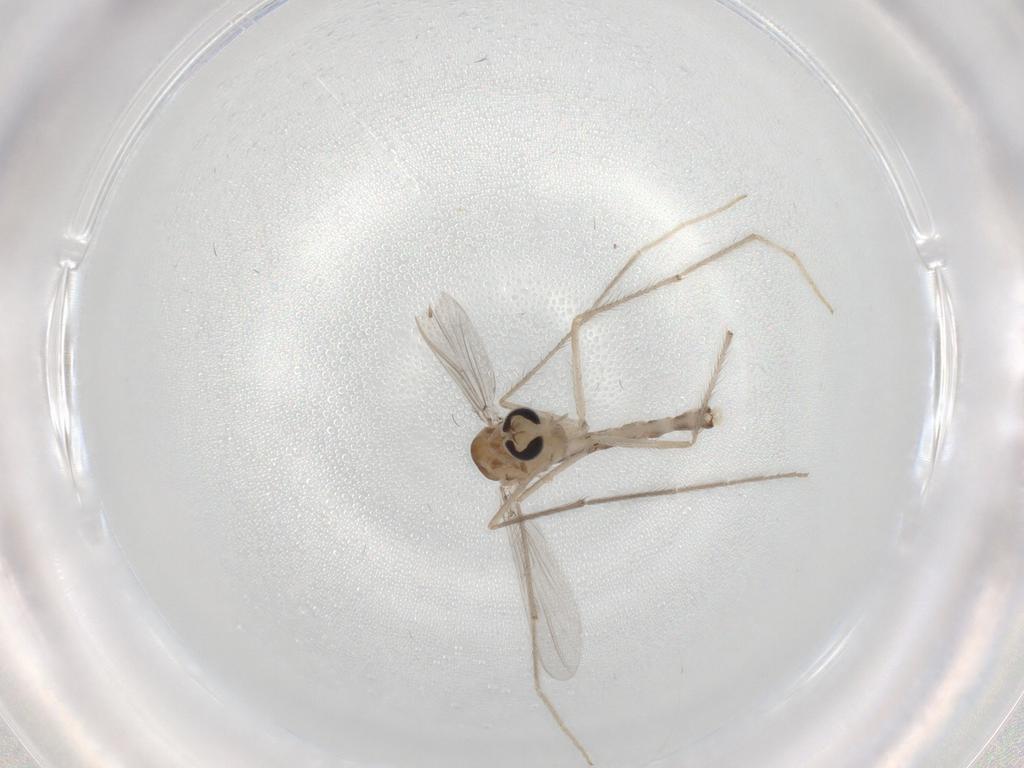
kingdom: Animalia
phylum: Arthropoda
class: Insecta
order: Diptera
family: Chironomidae
